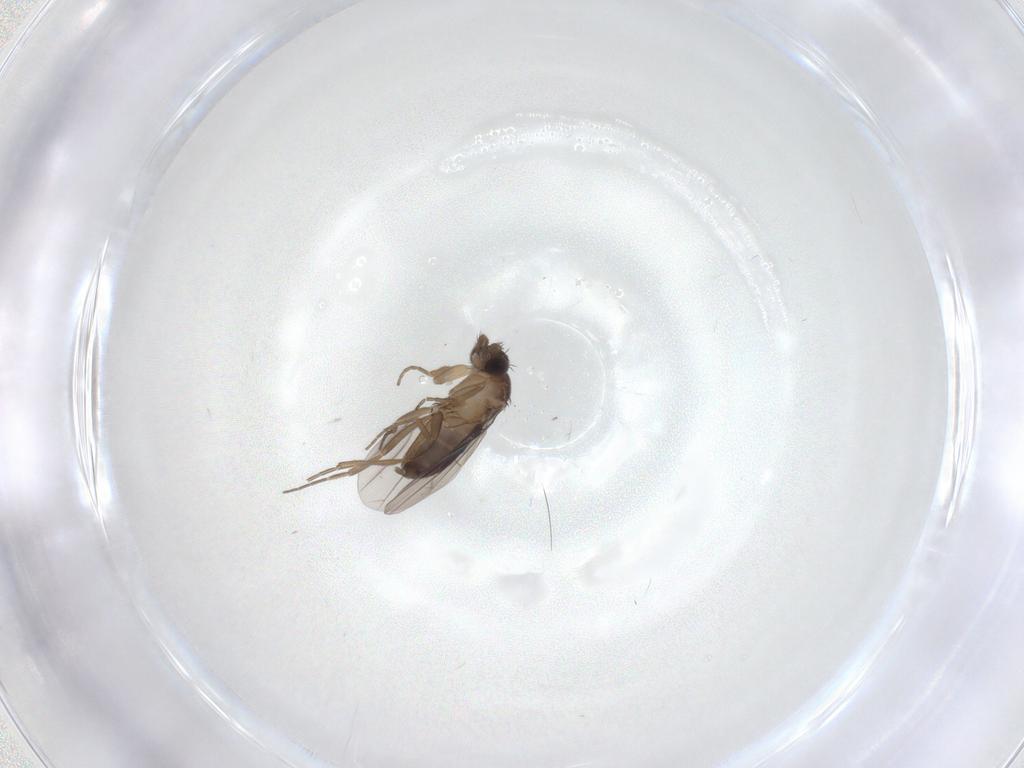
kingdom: Animalia
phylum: Arthropoda
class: Insecta
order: Diptera
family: Chironomidae
